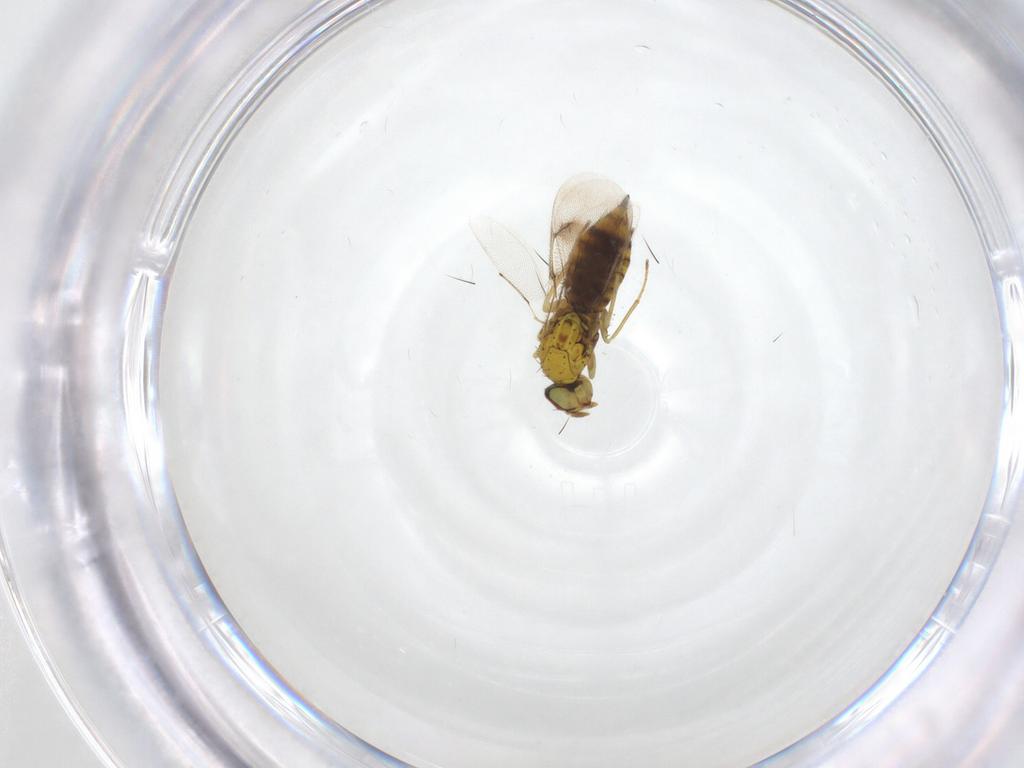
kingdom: Animalia
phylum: Arthropoda
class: Insecta
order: Hymenoptera
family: Eulophidae
